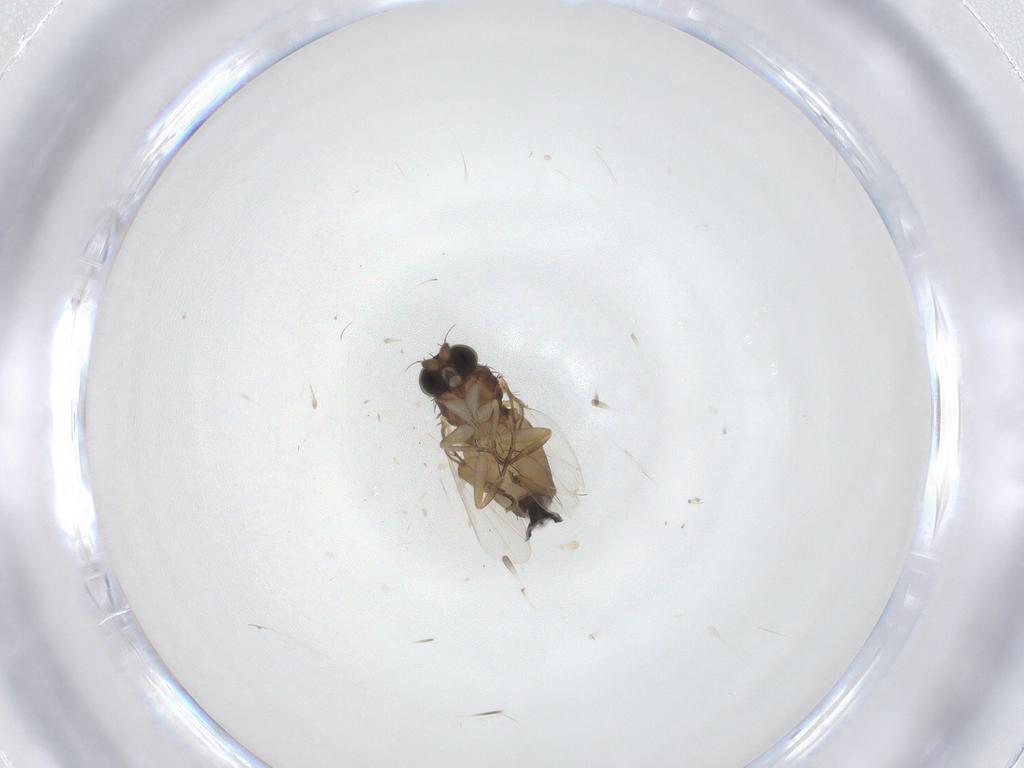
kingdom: Animalia
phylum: Arthropoda
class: Insecta
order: Diptera
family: Phoridae
